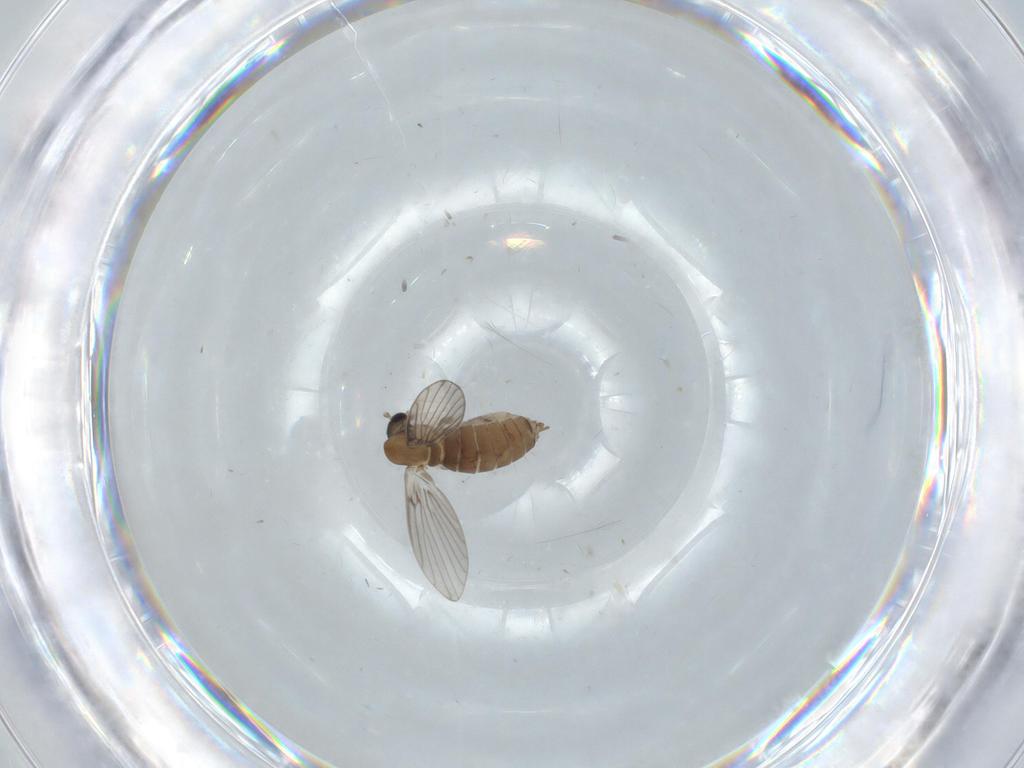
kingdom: Animalia
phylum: Arthropoda
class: Insecta
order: Diptera
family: Psychodidae
